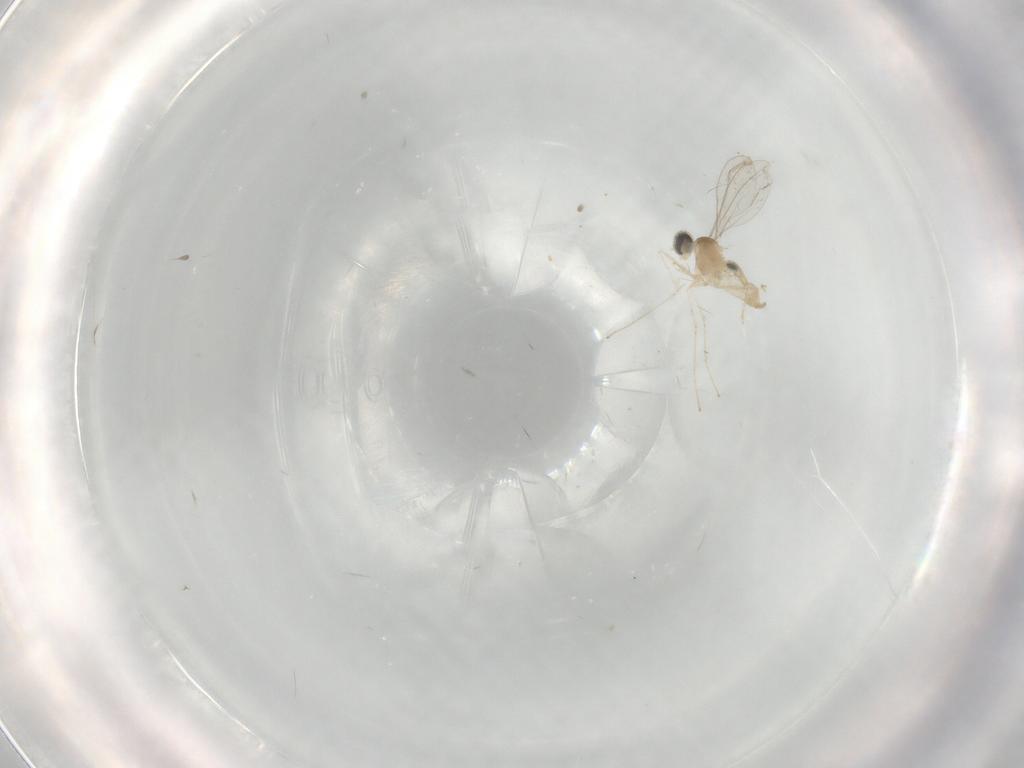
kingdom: Animalia
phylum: Arthropoda
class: Insecta
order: Diptera
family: Cecidomyiidae
